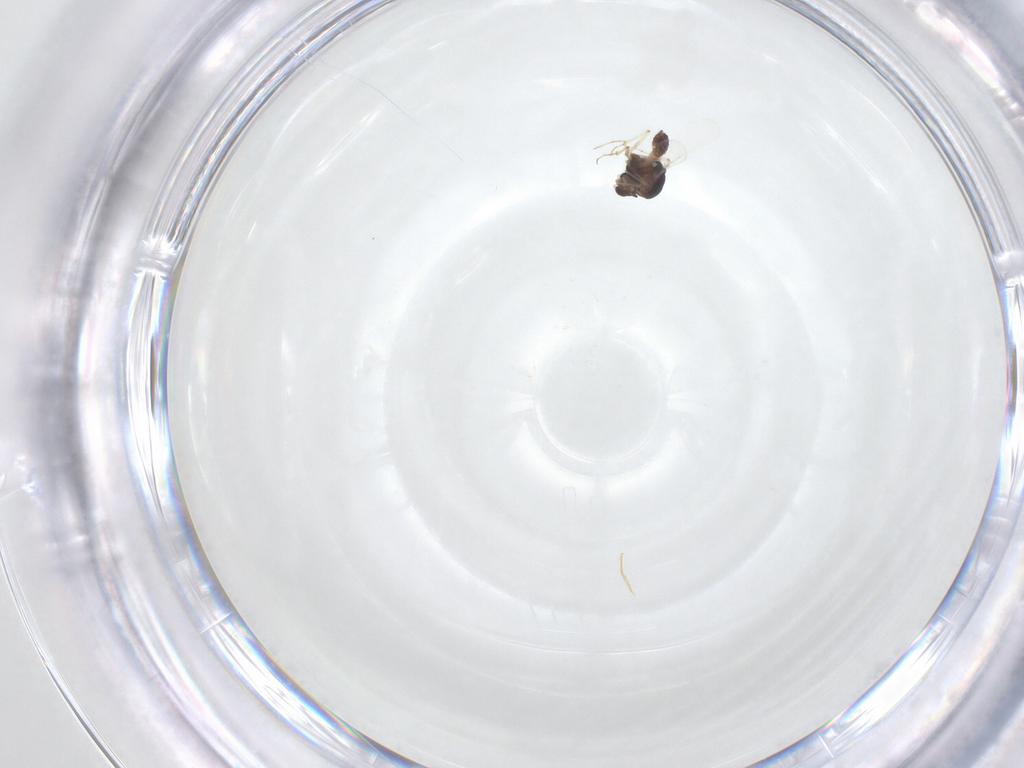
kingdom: Animalia
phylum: Arthropoda
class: Insecta
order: Diptera
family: Chironomidae
